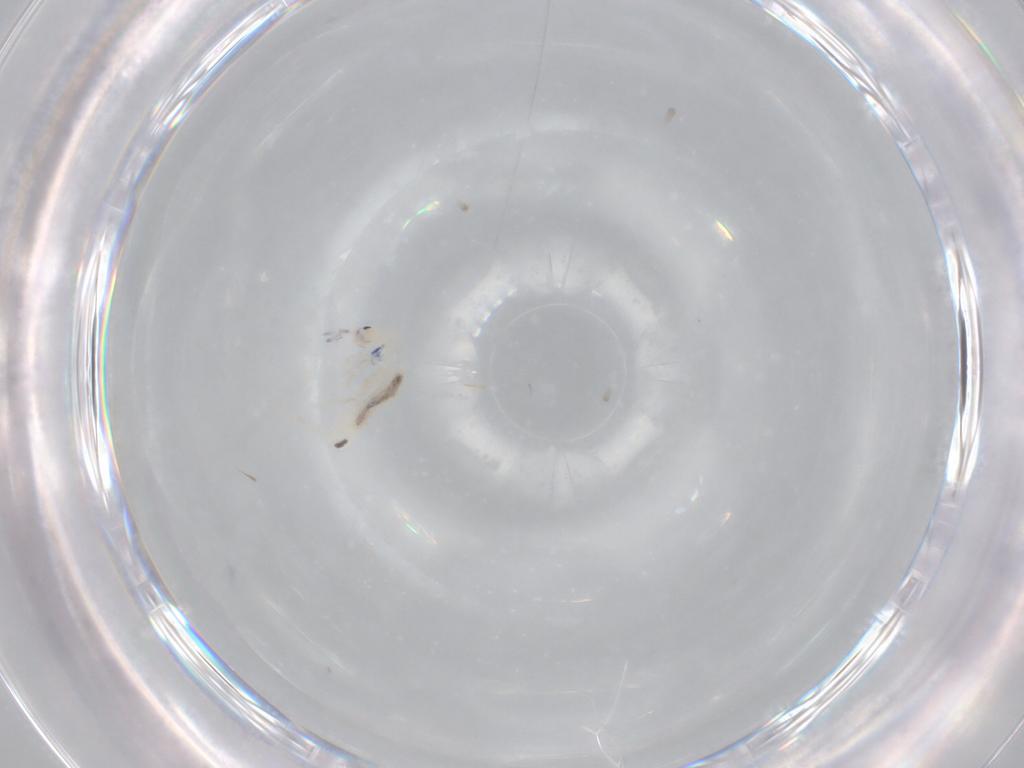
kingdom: Animalia
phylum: Arthropoda
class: Collembola
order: Entomobryomorpha
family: Entomobryidae
